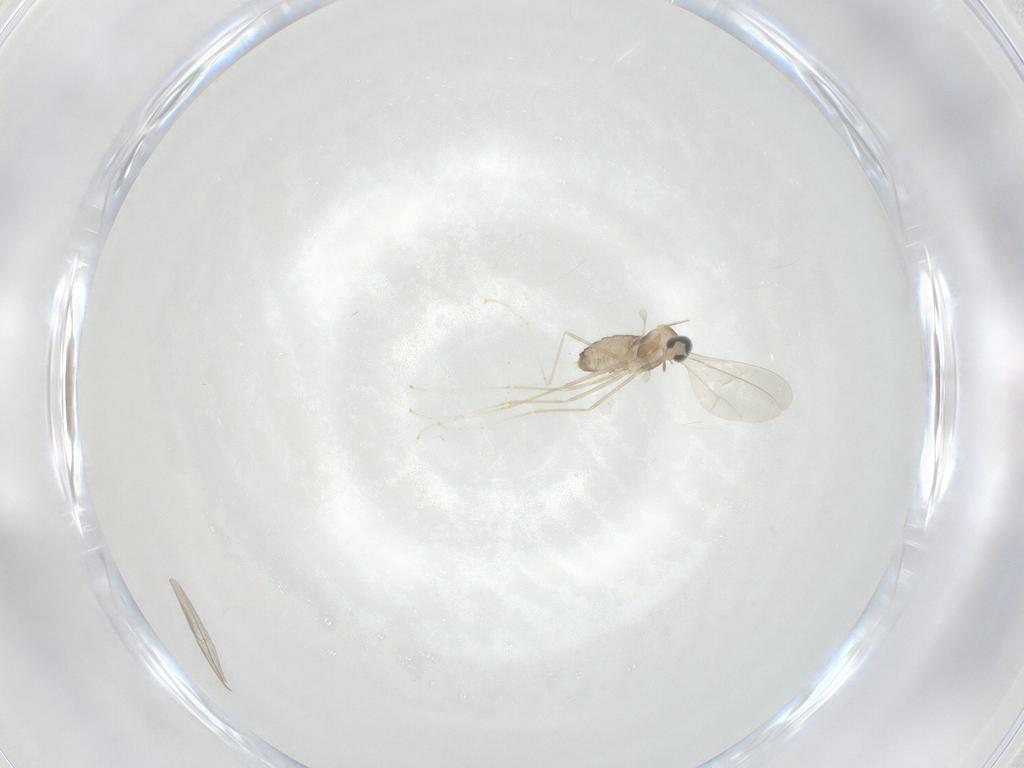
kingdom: Animalia
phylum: Arthropoda
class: Insecta
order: Diptera
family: Cecidomyiidae
